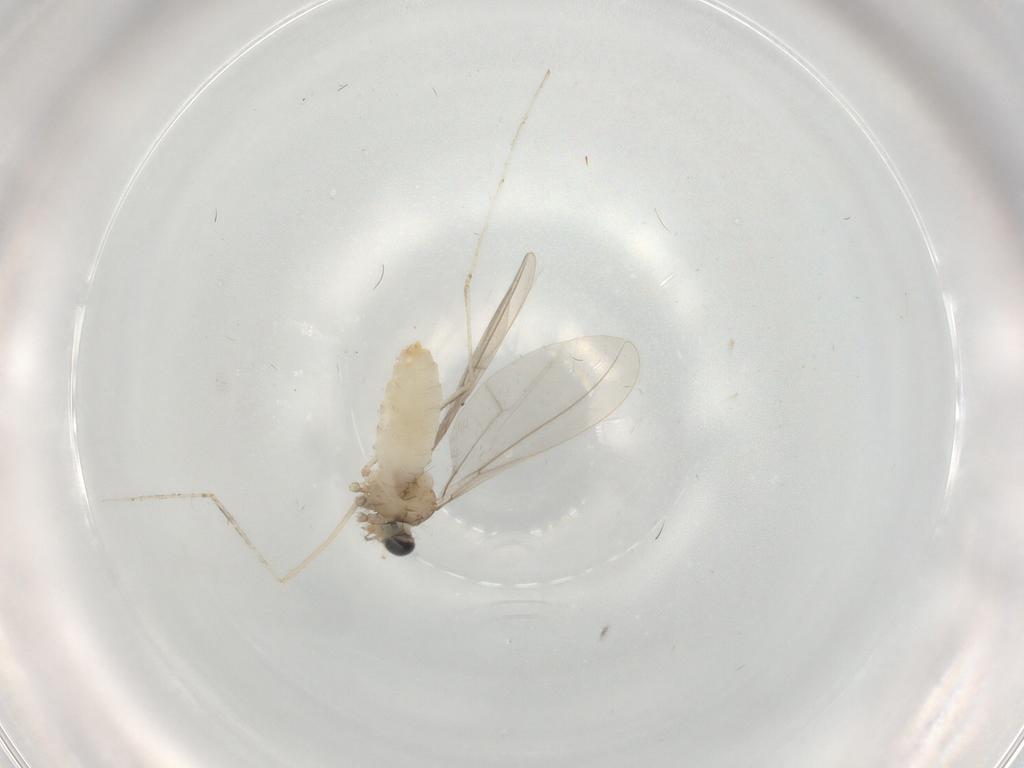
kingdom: Animalia
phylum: Arthropoda
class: Insecta
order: Diptera
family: Cecidomyiidae
